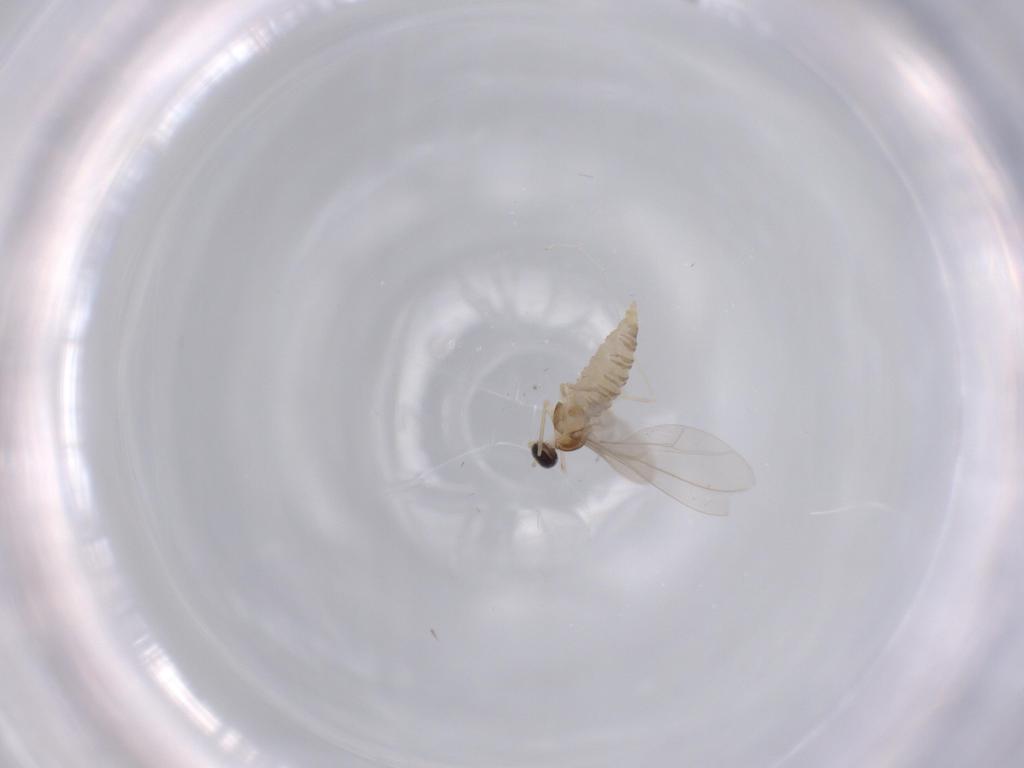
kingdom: Animalia
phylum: Arthropoda
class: Insecta
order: Diptera
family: Cecidomyiidae
